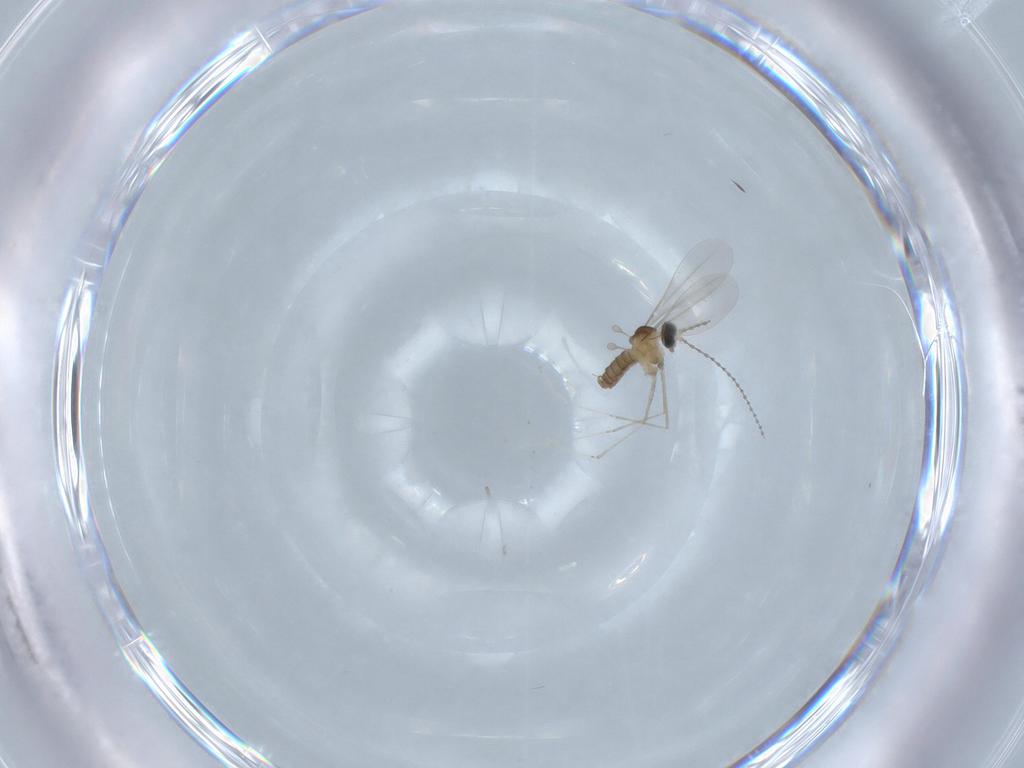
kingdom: Animalia
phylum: Arthropoda
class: Insecta
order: Diptera
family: Cecidomyiidae
